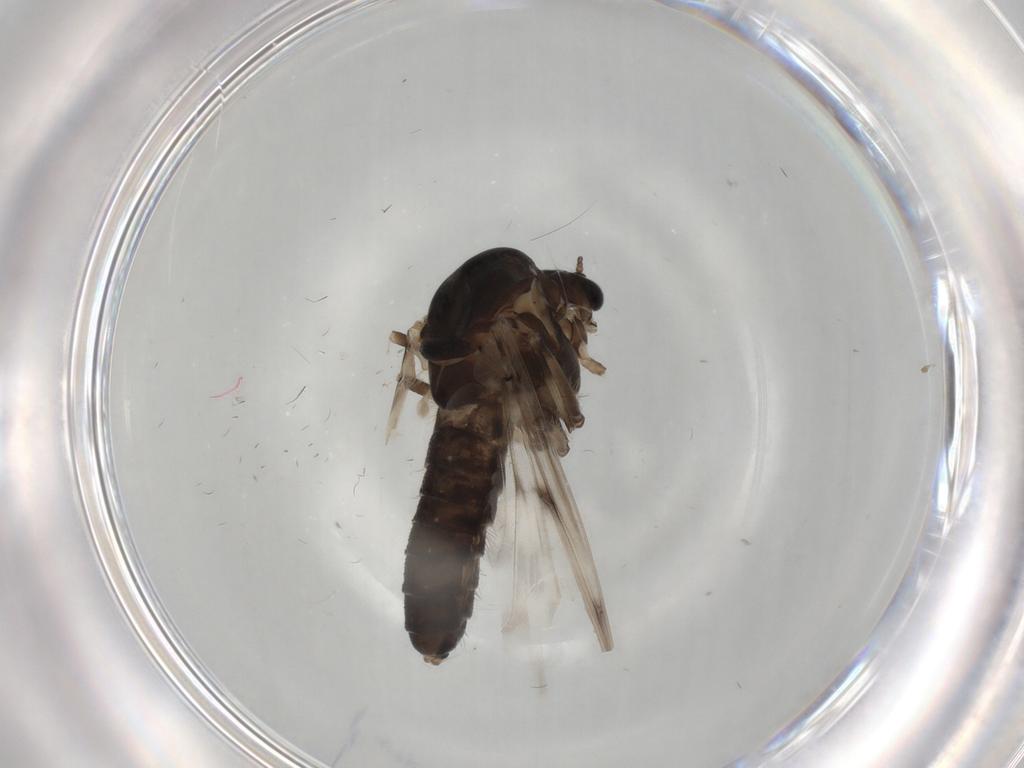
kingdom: Animalia
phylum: Arthropoda
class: Insecta
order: Diptera
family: Chironomidae
